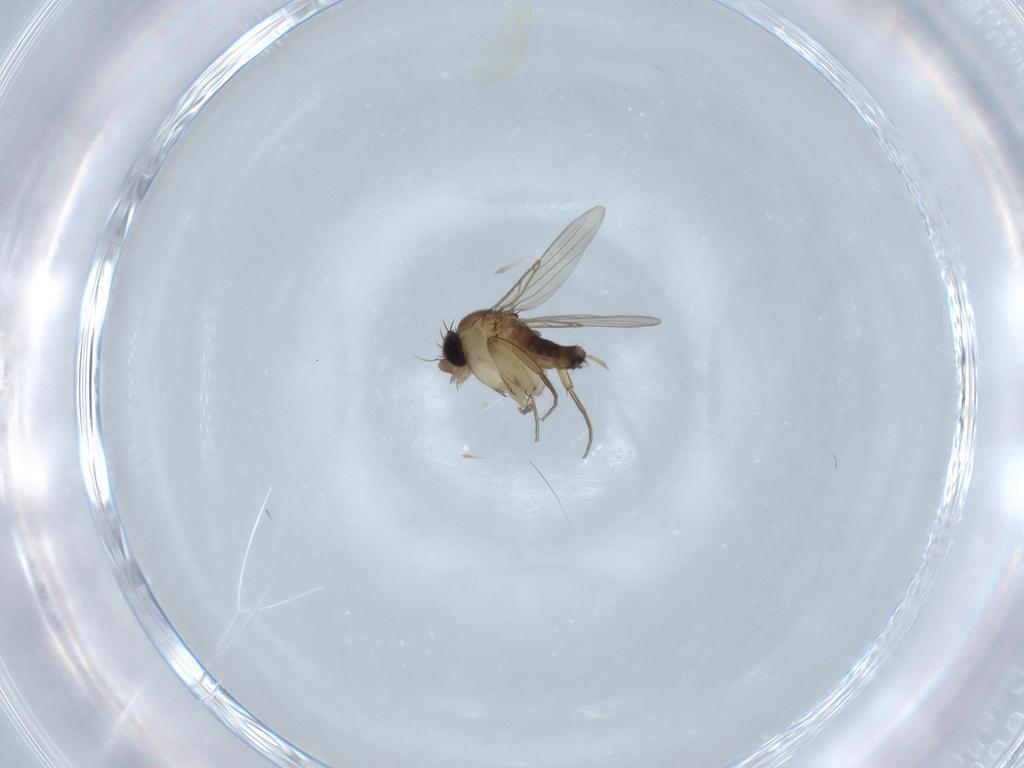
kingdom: Animalia
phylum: Arthropoda
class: Insecta
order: Diptera
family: Phoridae
